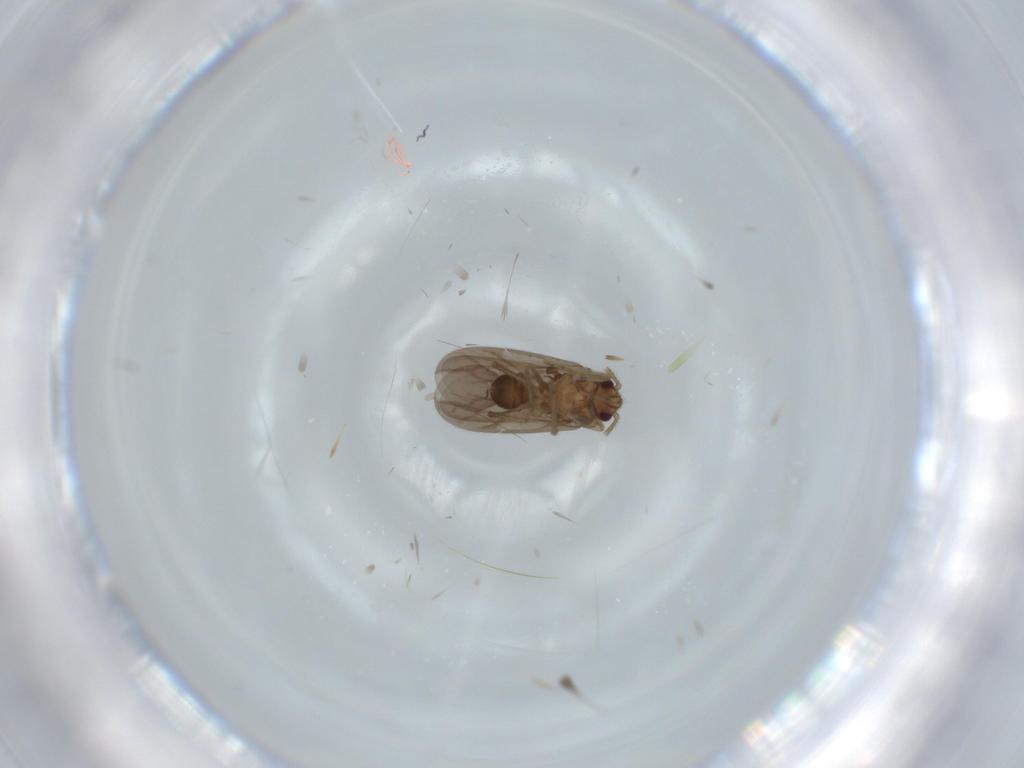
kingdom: Animalia
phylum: Arthropoda
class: Insecta
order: Hemiptera
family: Ceratocombidae
